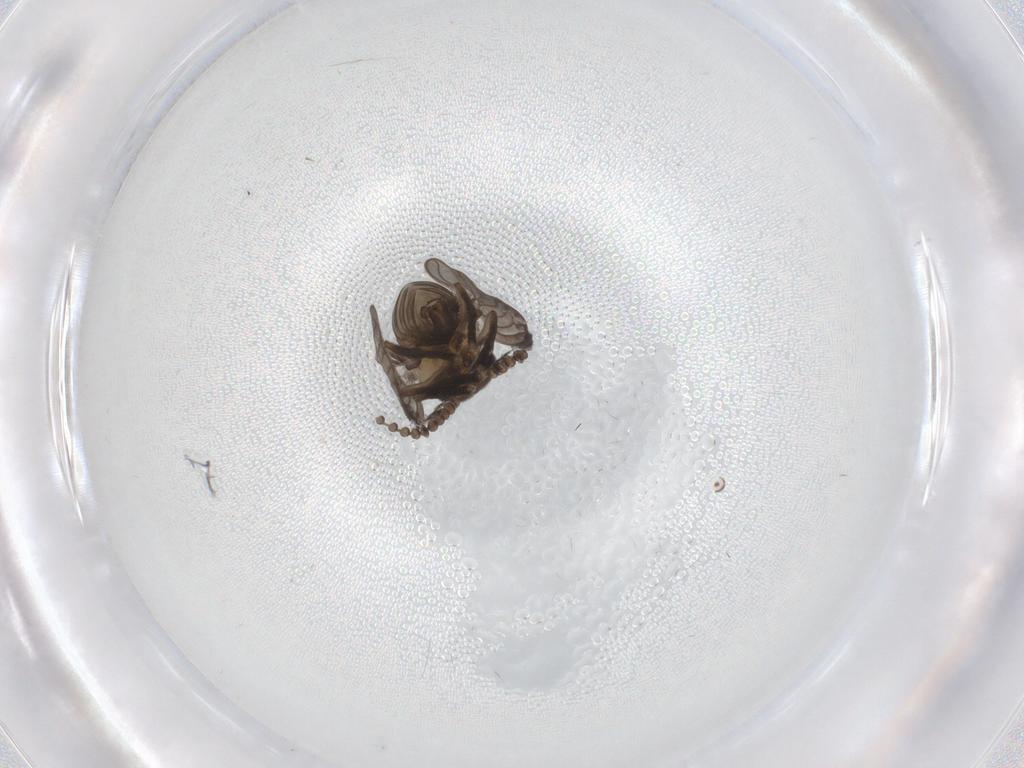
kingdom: Animalia
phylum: Arthropoda
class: Insecta
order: Diptera
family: Psychodidae
